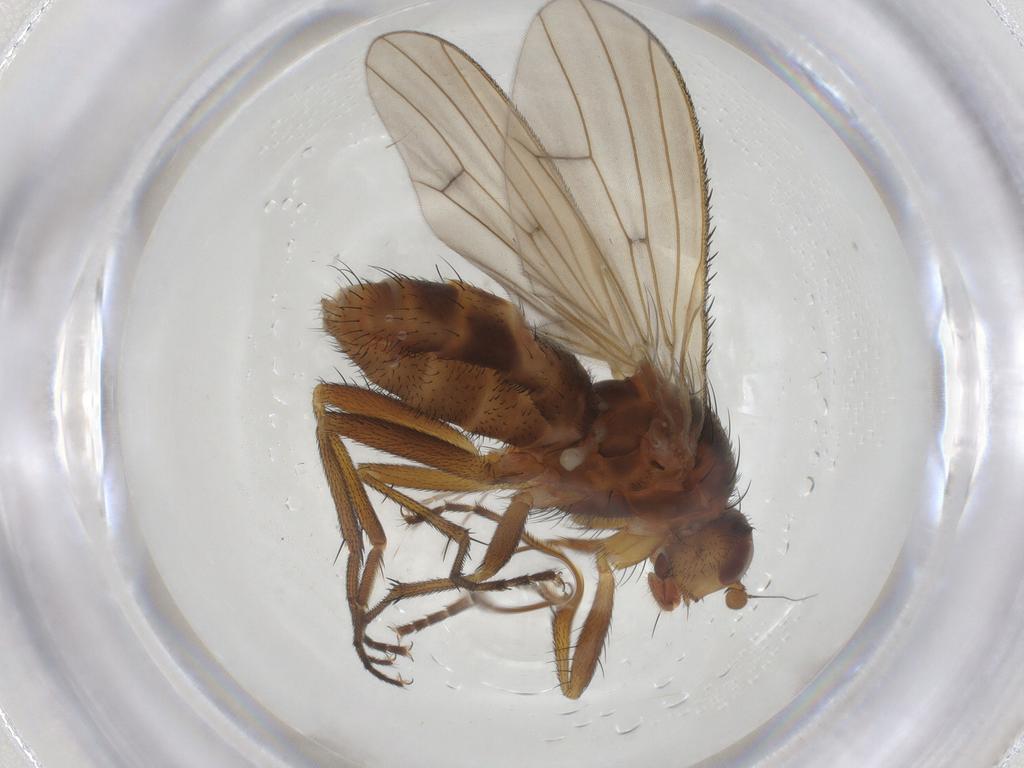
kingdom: Animalia
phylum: Arthropoda
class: Insecta
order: Diptera
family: Heleomyzidae
